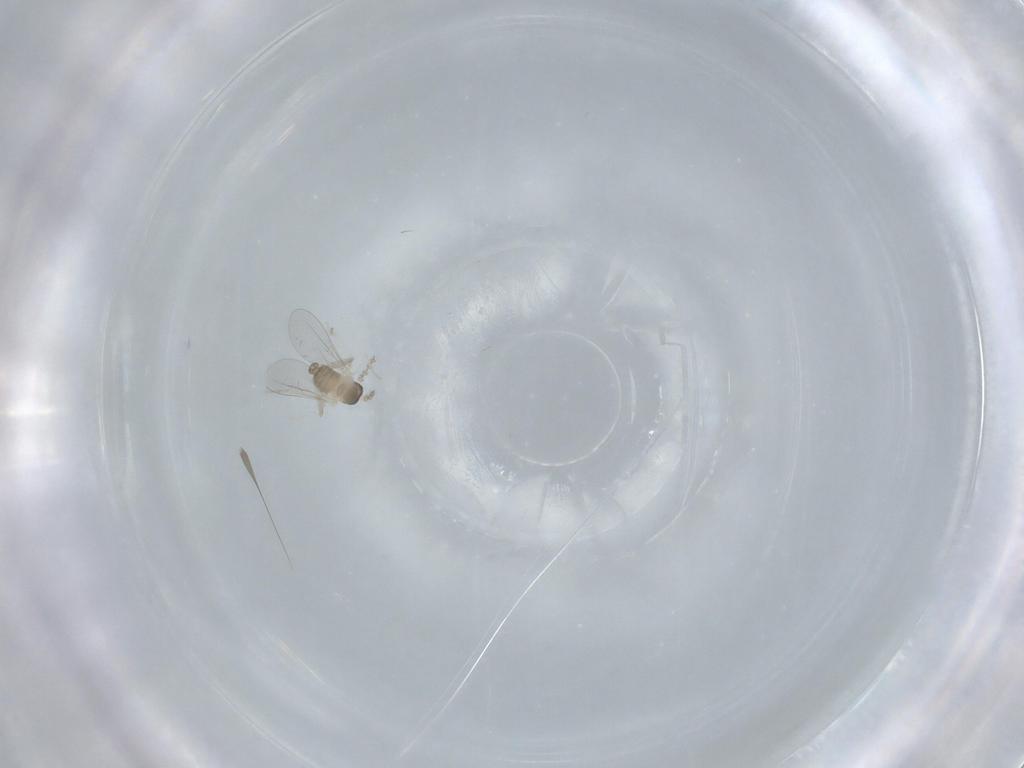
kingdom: Animalia
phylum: Arthropoda
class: Insecta
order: Diptera
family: Cecidomyiidae
